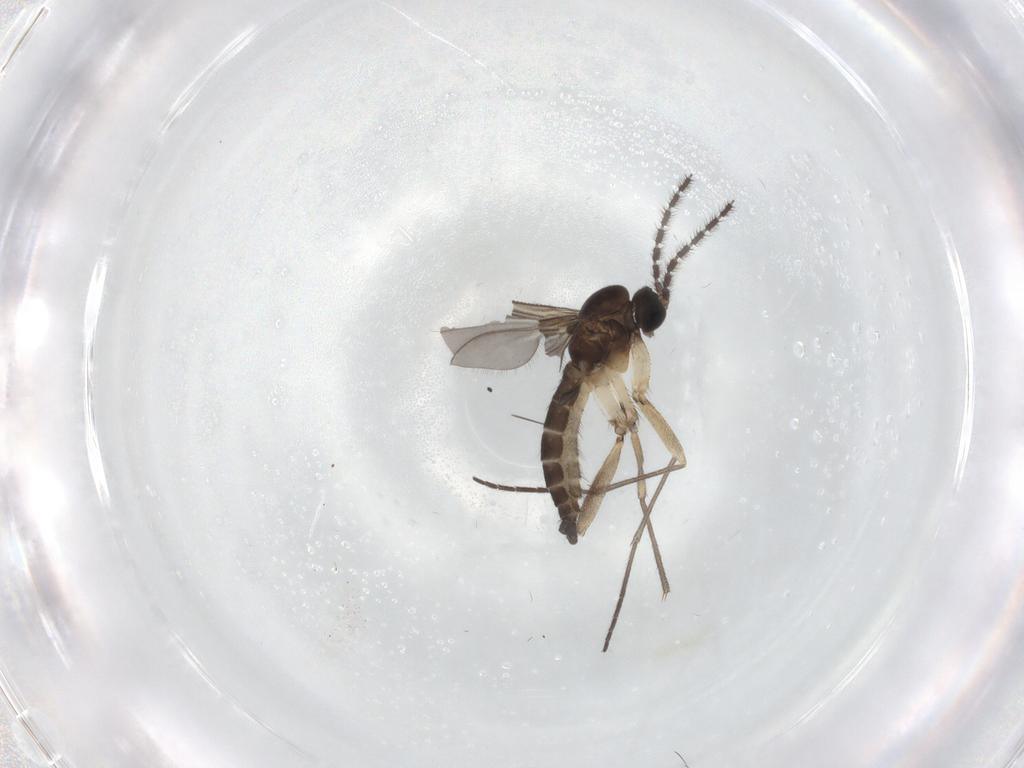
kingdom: Animalia
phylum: Arthropoda
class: Insecta
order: Diptera
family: Sciaridae
